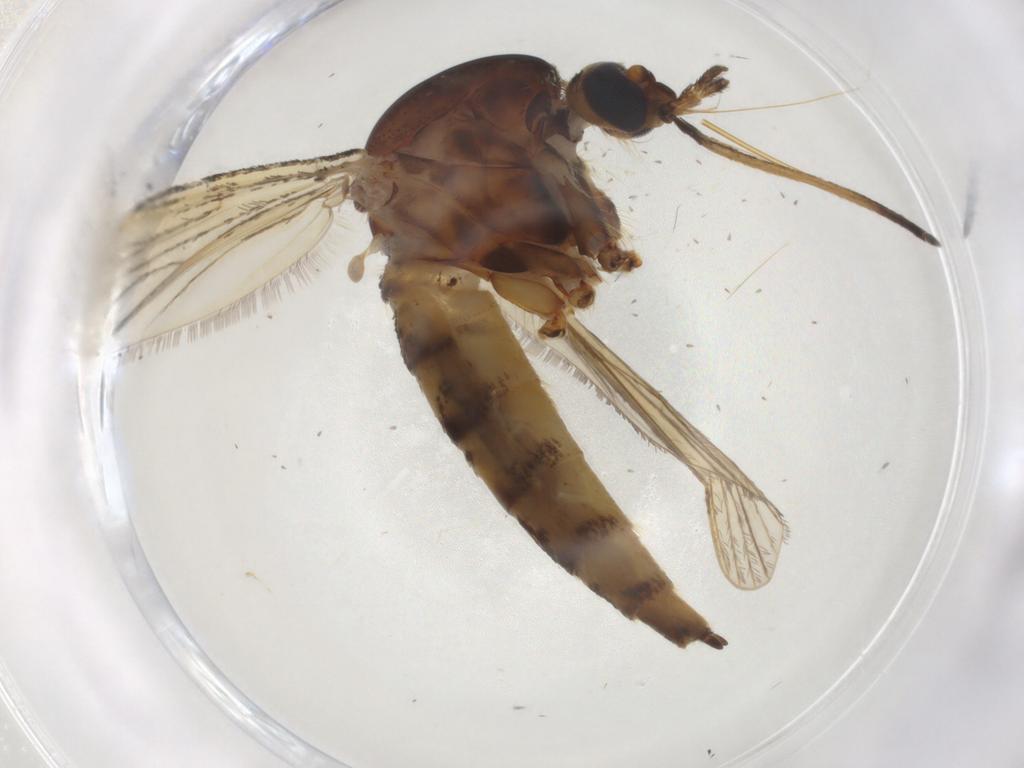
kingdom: Animalia
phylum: Arthropoda
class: Insecta
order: Diptera
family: Culicidae
